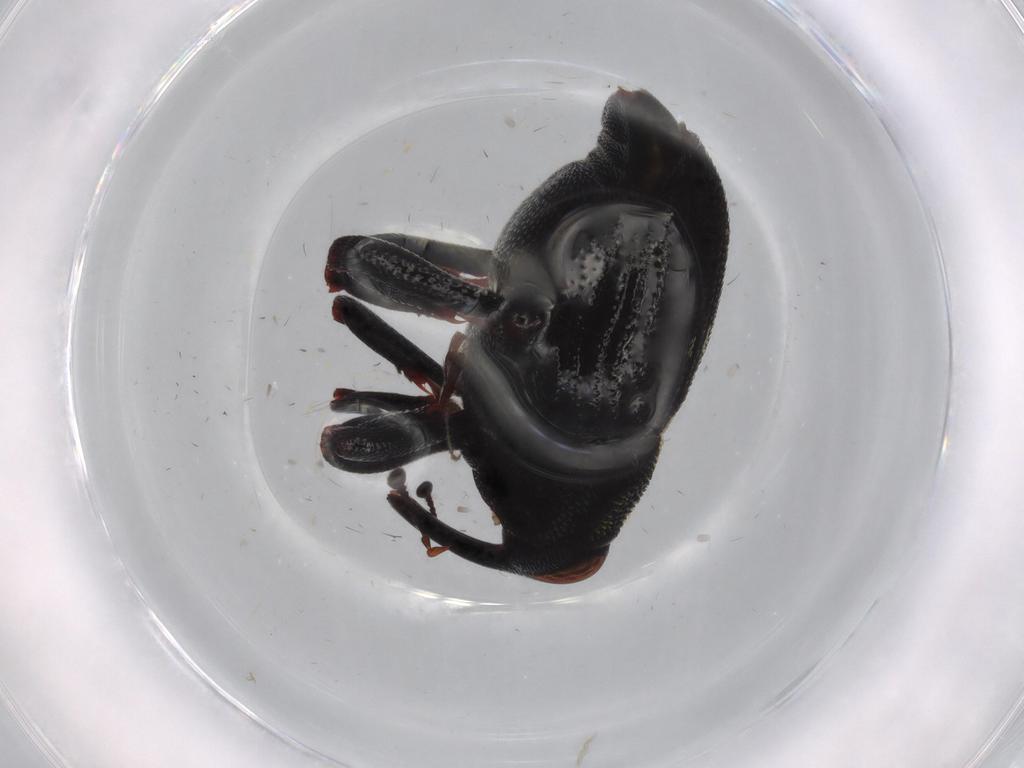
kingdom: Animalia
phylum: Arthropoda
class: Insecta
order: Coleoptera
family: Curculionidae
